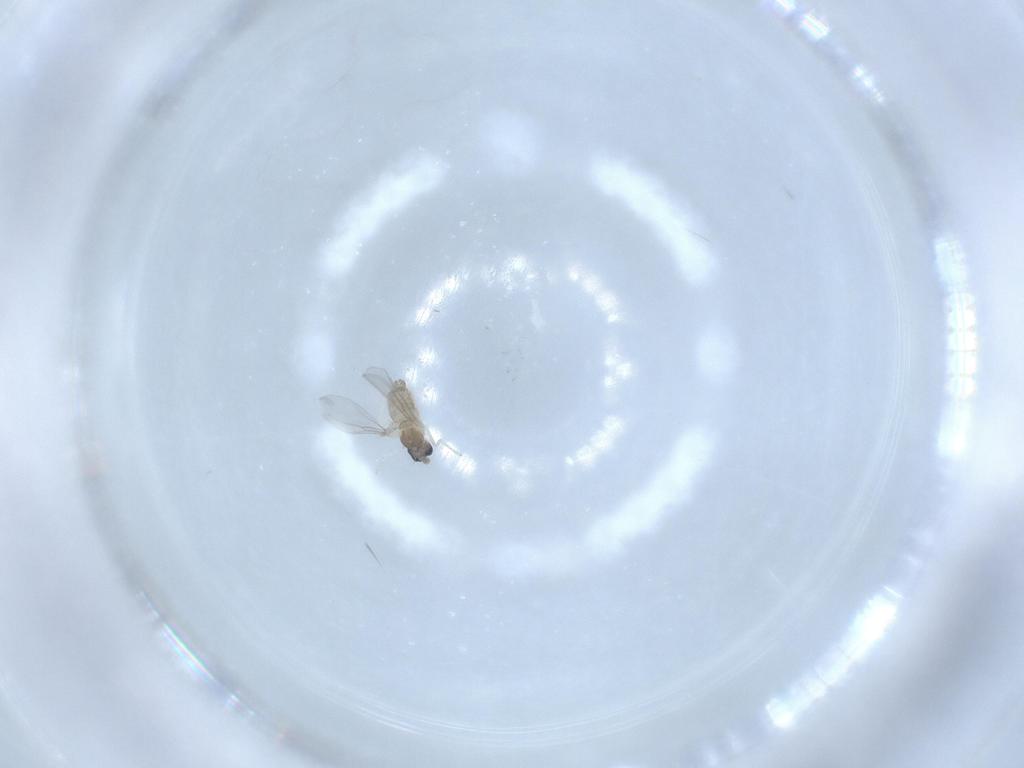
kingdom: Animalia
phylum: Arthropoda
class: Insecta
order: Diptera
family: Cecidomyiidae
